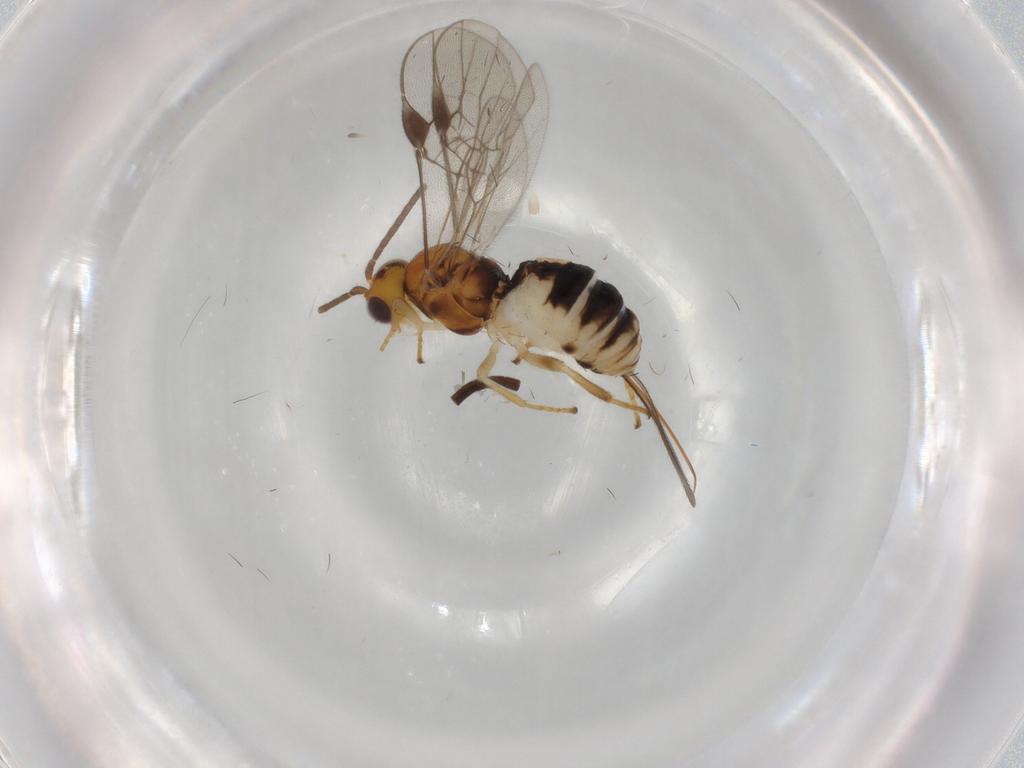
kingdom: Animalia
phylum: Arthropoda
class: Insecta
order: Hymenoptera
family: Braconidae
